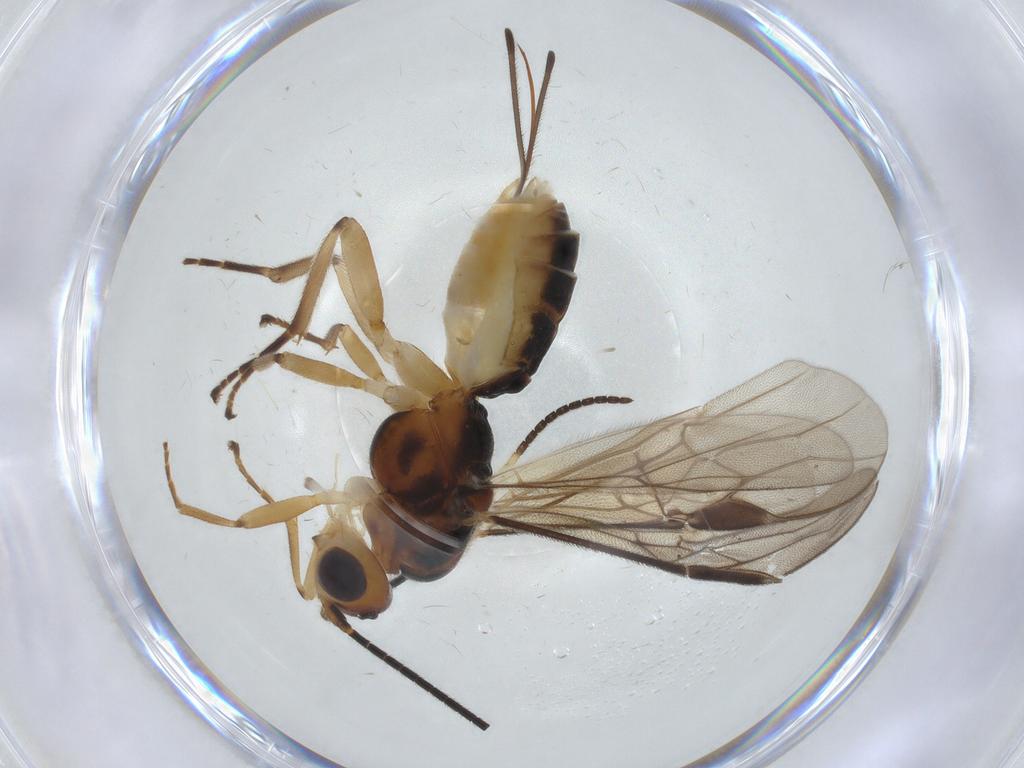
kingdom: Animalia
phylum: Arthropoda
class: Insecta
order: Hymenoptera
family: Braconidae
